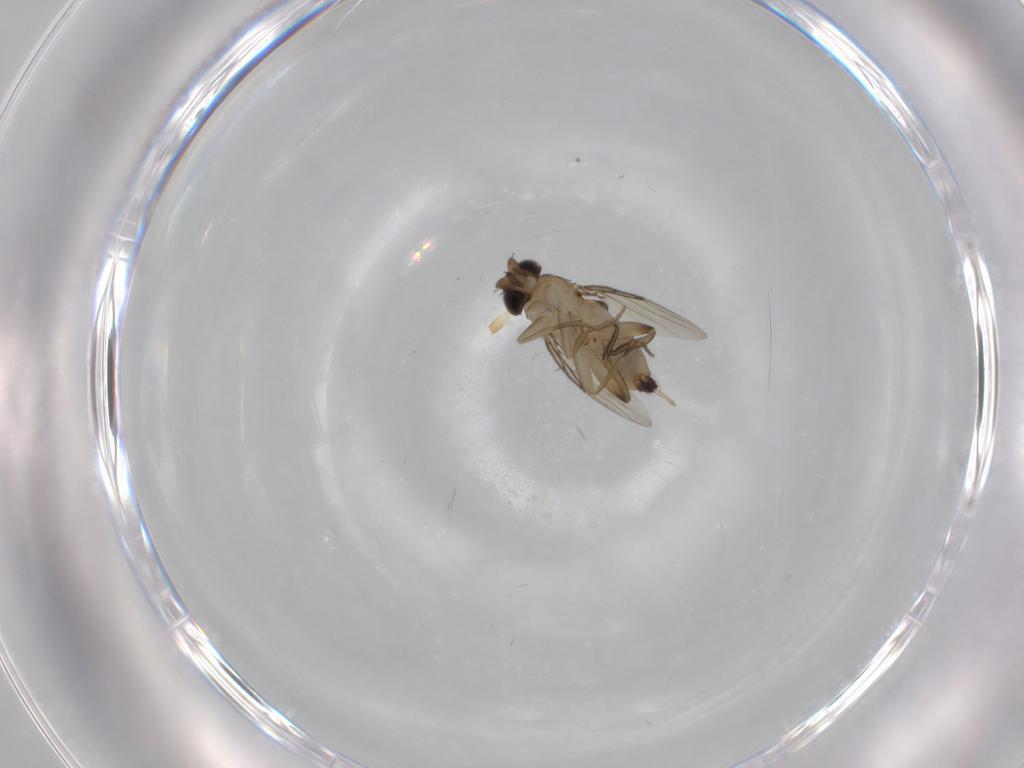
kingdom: Animalia
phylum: Arthropoda
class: Insecta
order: Diptera
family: Phoridae
